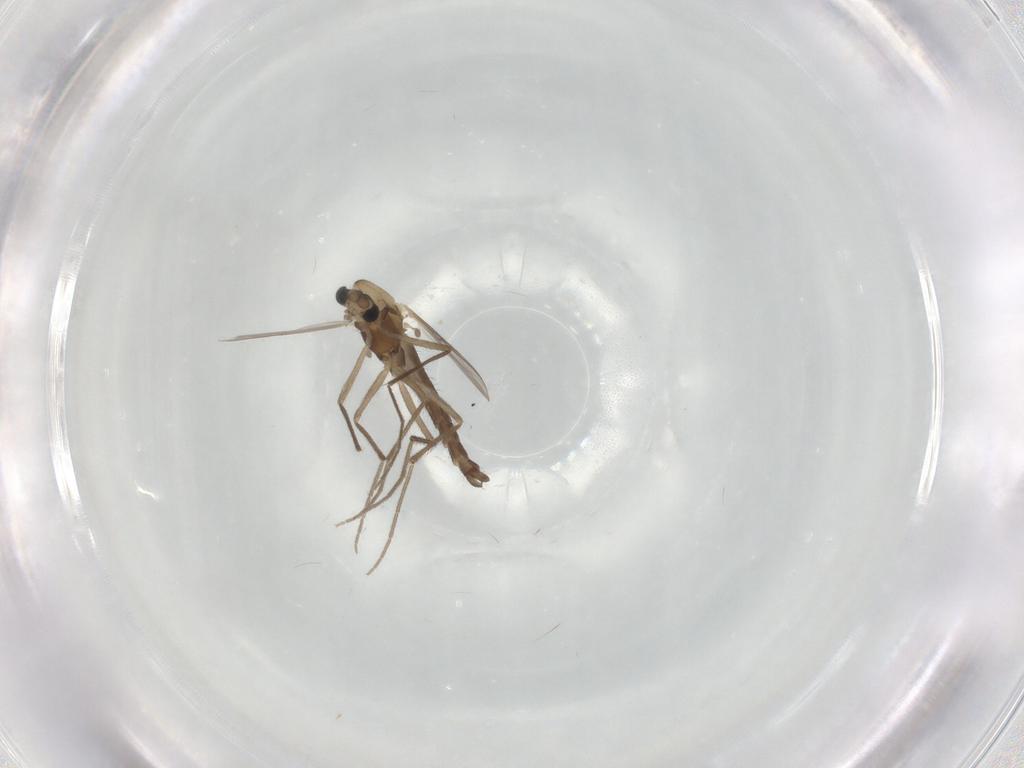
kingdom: Animalia
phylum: Arthropoda
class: Insecta
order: Diptera
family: Chironomidae
